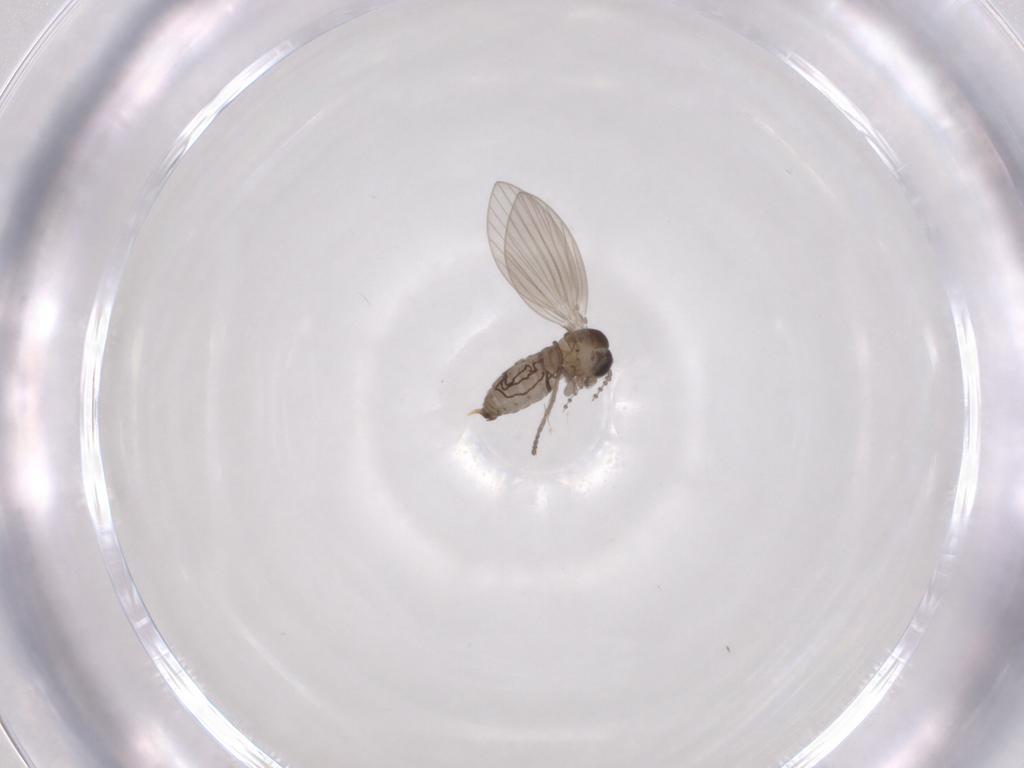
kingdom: Animalia
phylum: Arthropoda
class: Insecta
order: Diptera
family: Psychodidae
